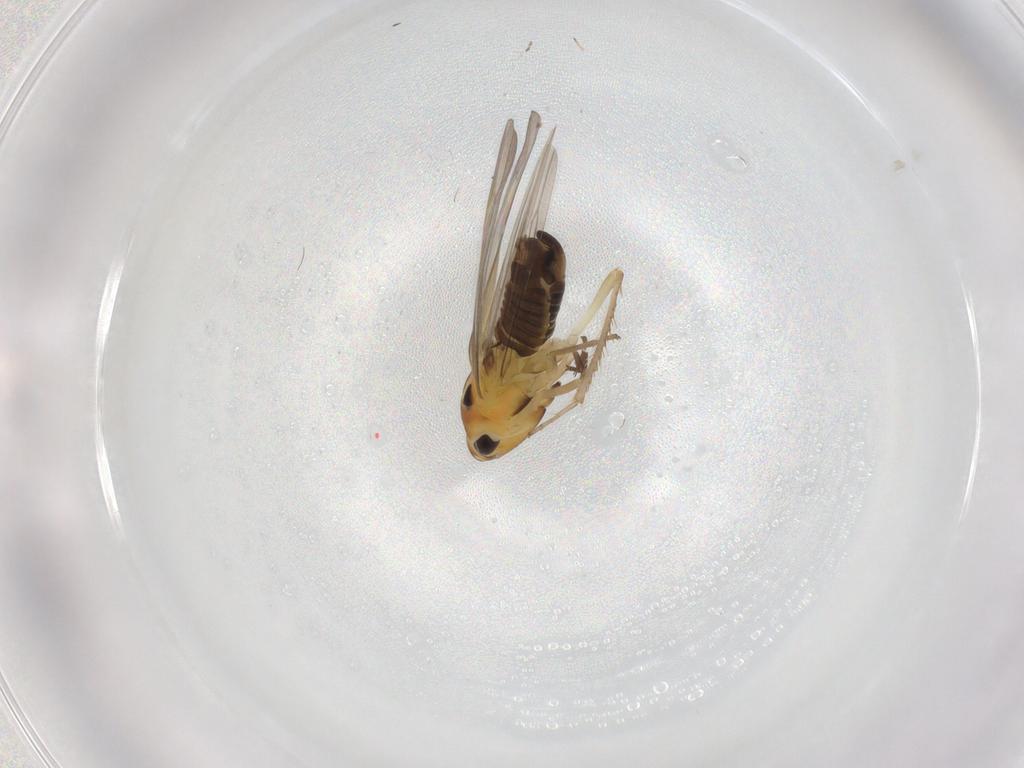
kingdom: Animalia
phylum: Arthropoda
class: Insecta
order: Hemiptera
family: Cicadellidae
